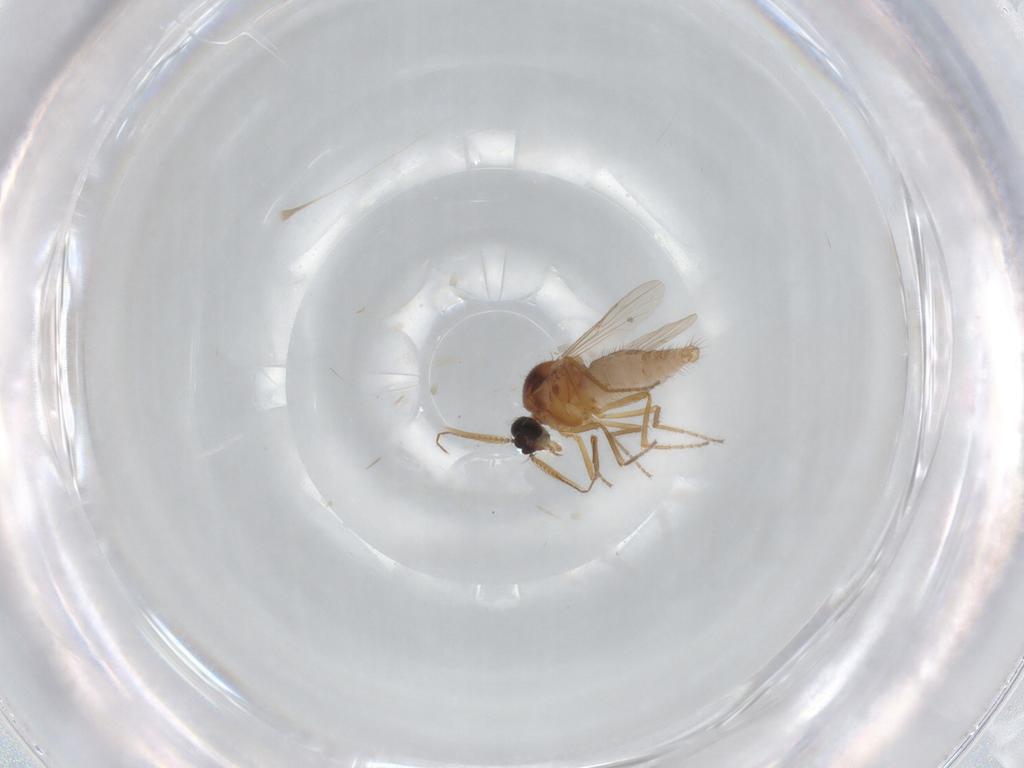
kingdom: Animalia
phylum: Arthropoda
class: Insecta
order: Diptera
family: Ceratopogonidae
